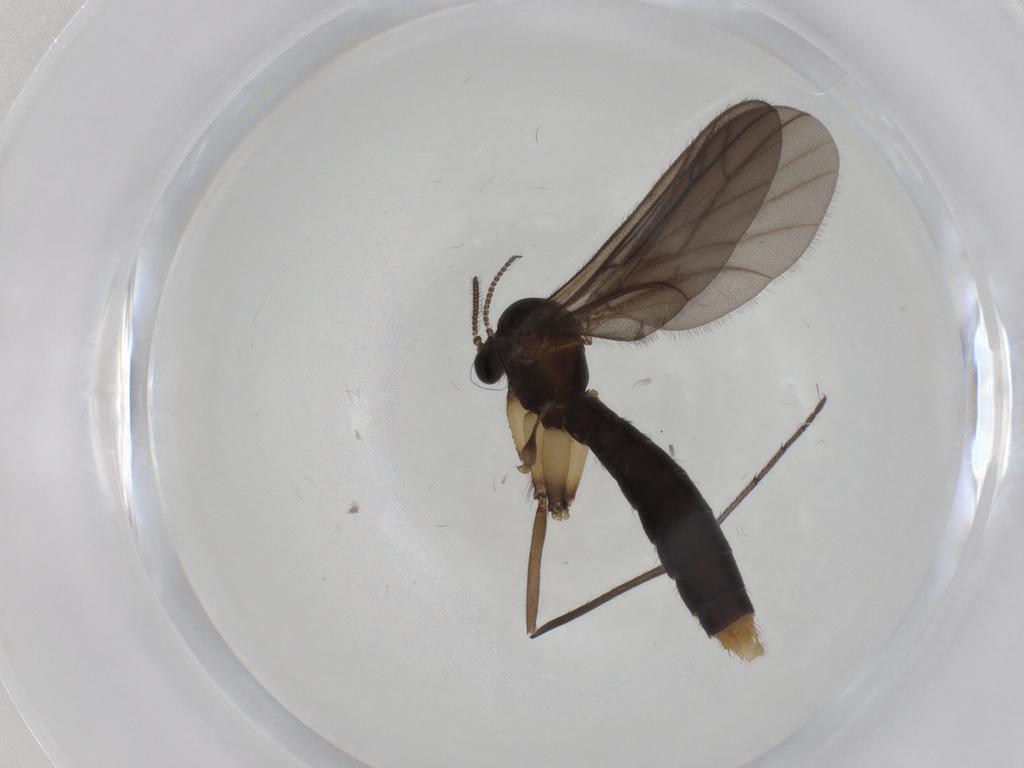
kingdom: Animalia
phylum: Arthropoda
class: Insecta
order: Diptera
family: Ditomyiidae
